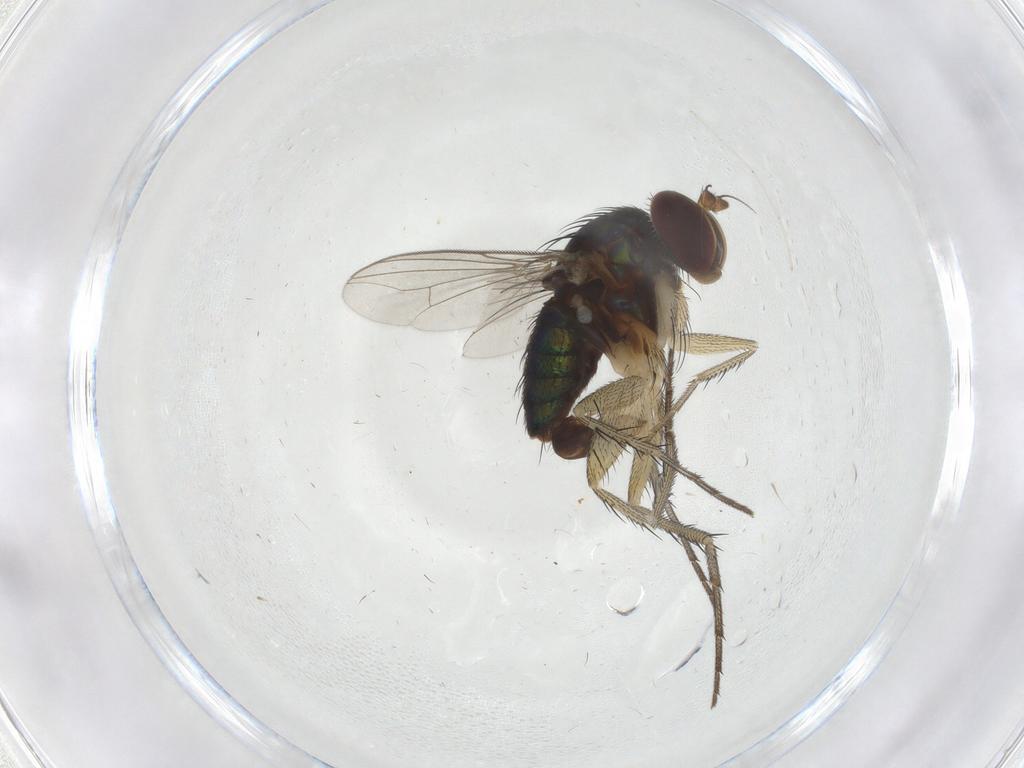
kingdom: Animalia
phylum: Arthropoda
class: Insecta
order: Diptera
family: Dolichopodidae
